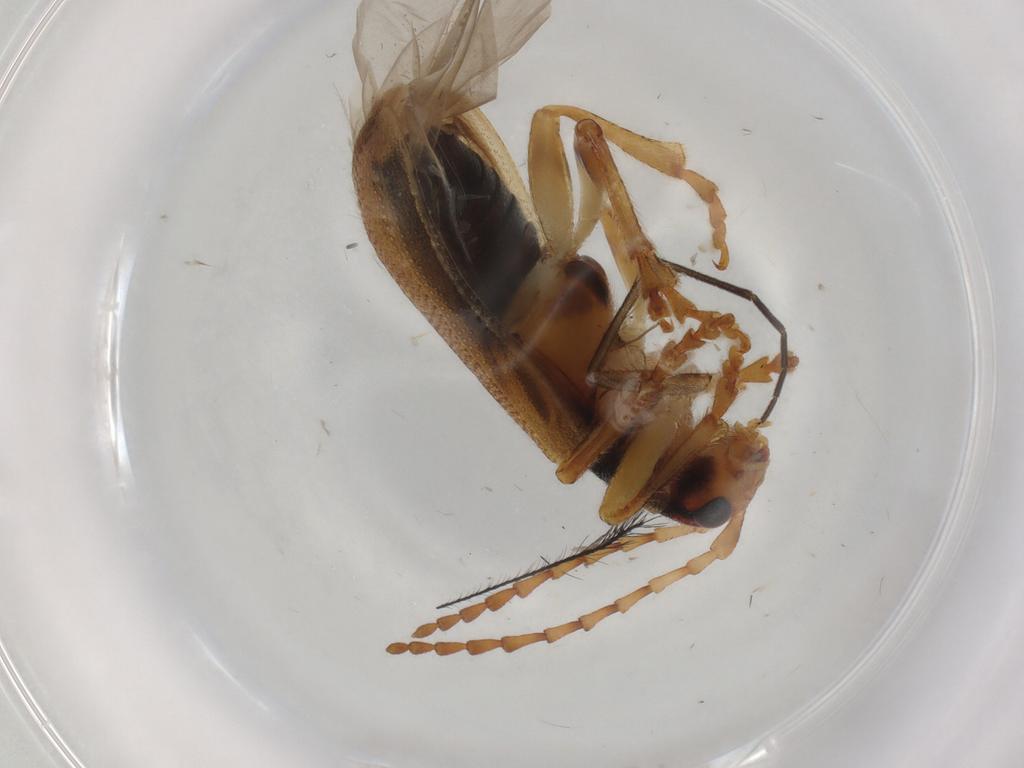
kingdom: Animalia
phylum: Arthropoda
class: Insecta
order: Coleoptera
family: Chrysomelidae
